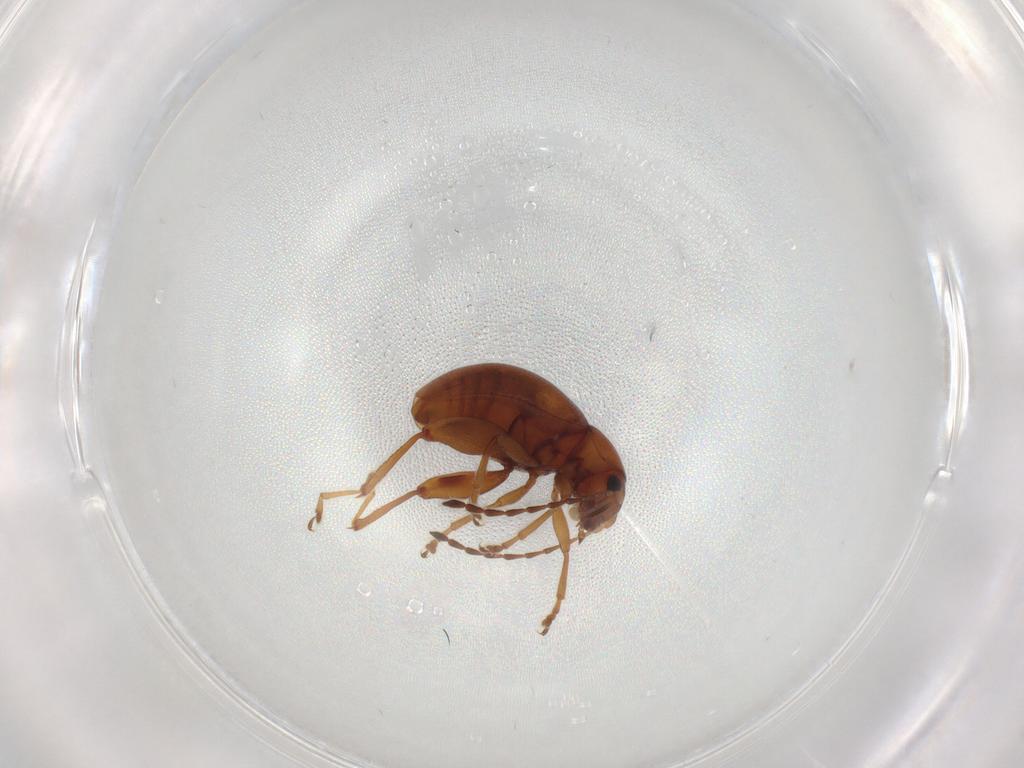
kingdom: Animalia
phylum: Arthropoda
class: Insecta
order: Coleoptera
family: Chrysomelidae
